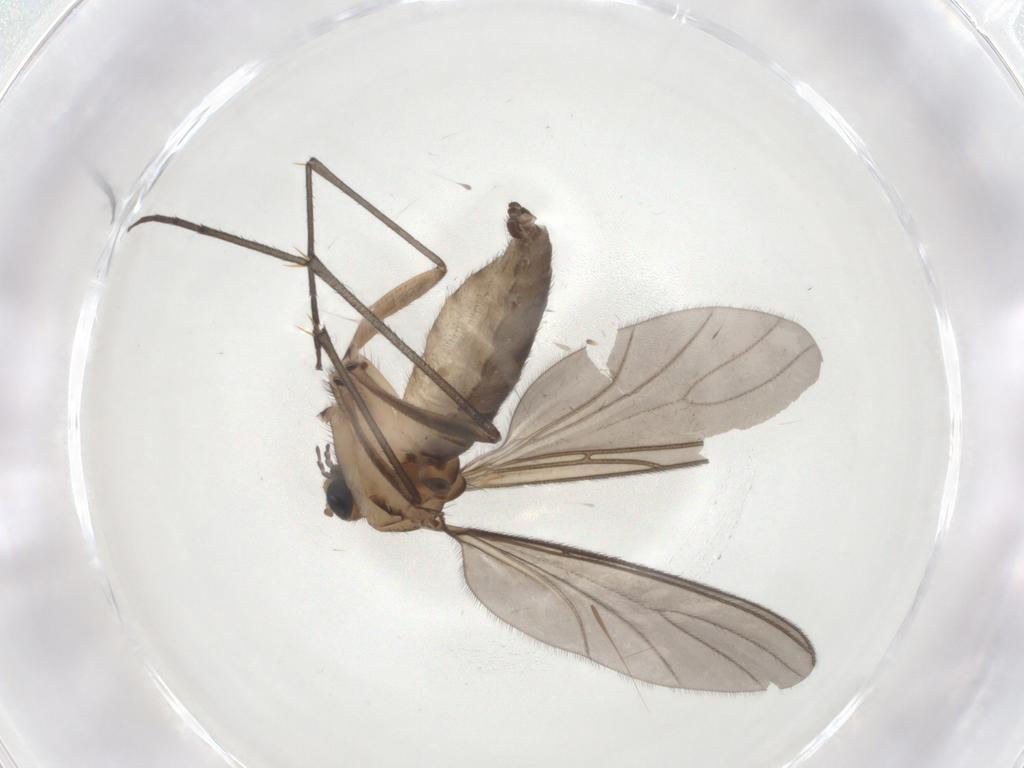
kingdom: Animalia
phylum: Arthropoda
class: Insecta
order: Diptera
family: Sciaridae
